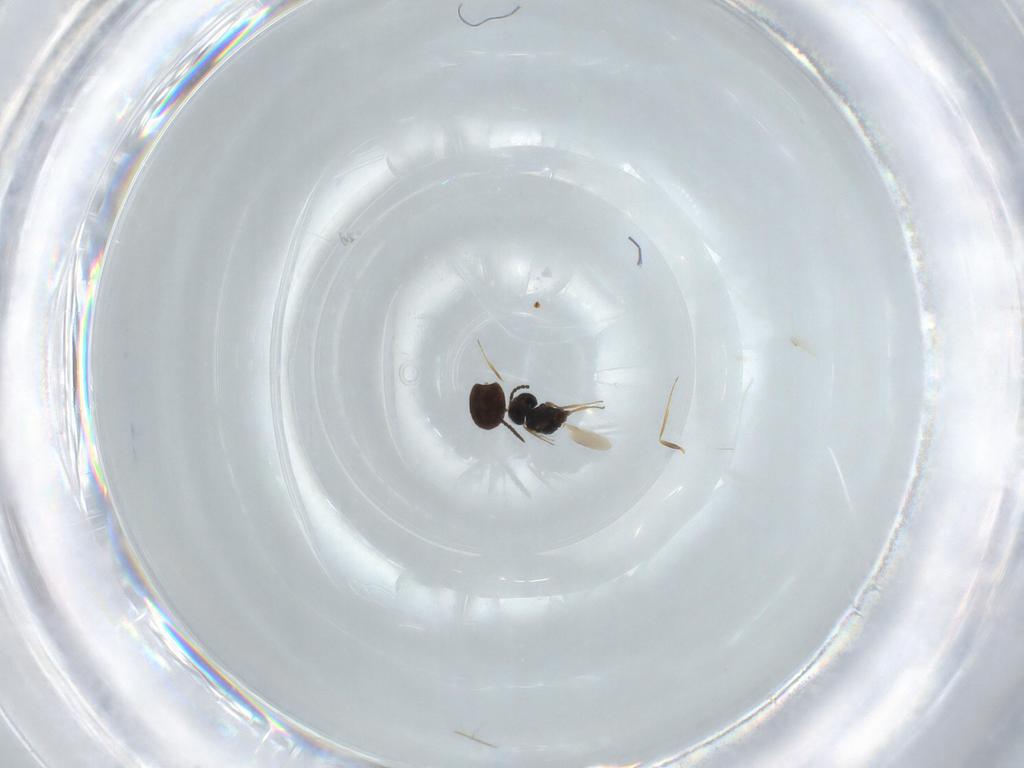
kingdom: Animalia
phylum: Arthropoda
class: Insecta
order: Hymenoptera
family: Scelionidae
